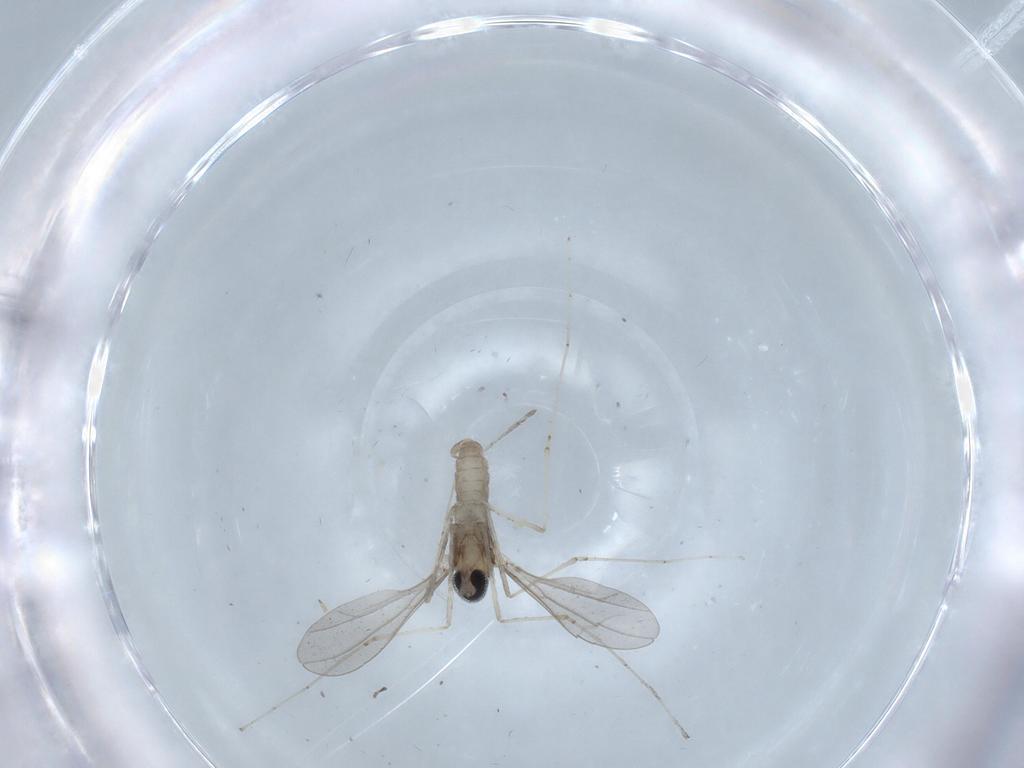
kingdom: Animalia
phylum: Arthropoda
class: Insecta
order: Diptera
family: Cecidomyiidae
